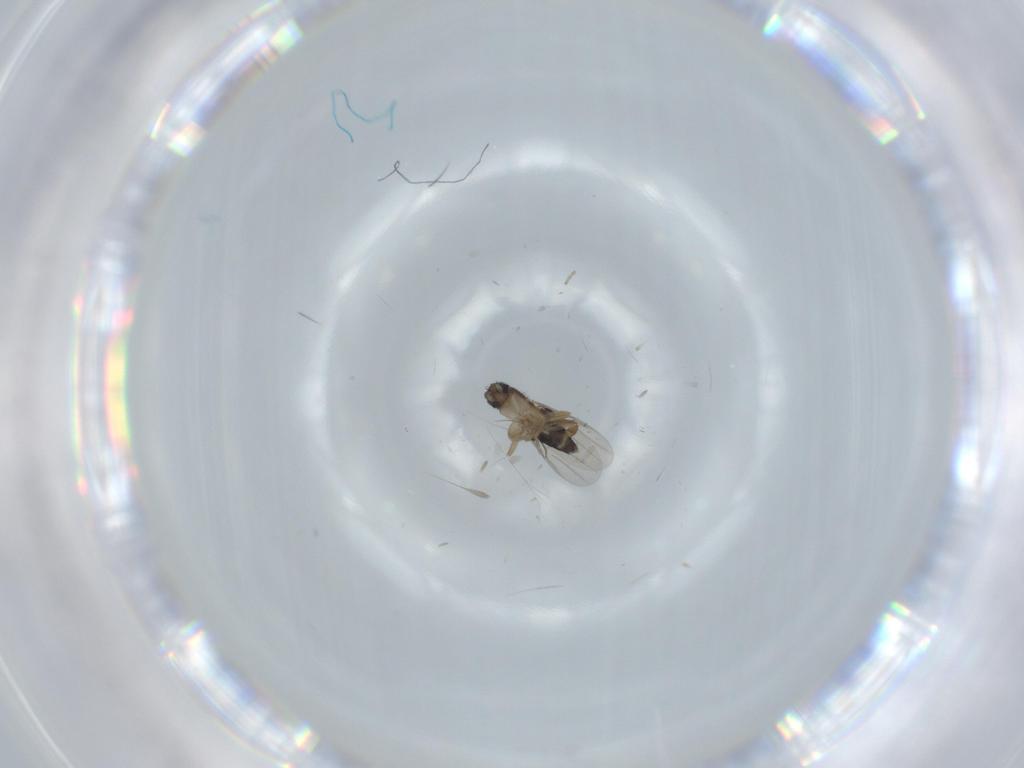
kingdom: Animalia
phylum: Arthropoda
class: Insecta
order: Diptera
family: Phoridae
